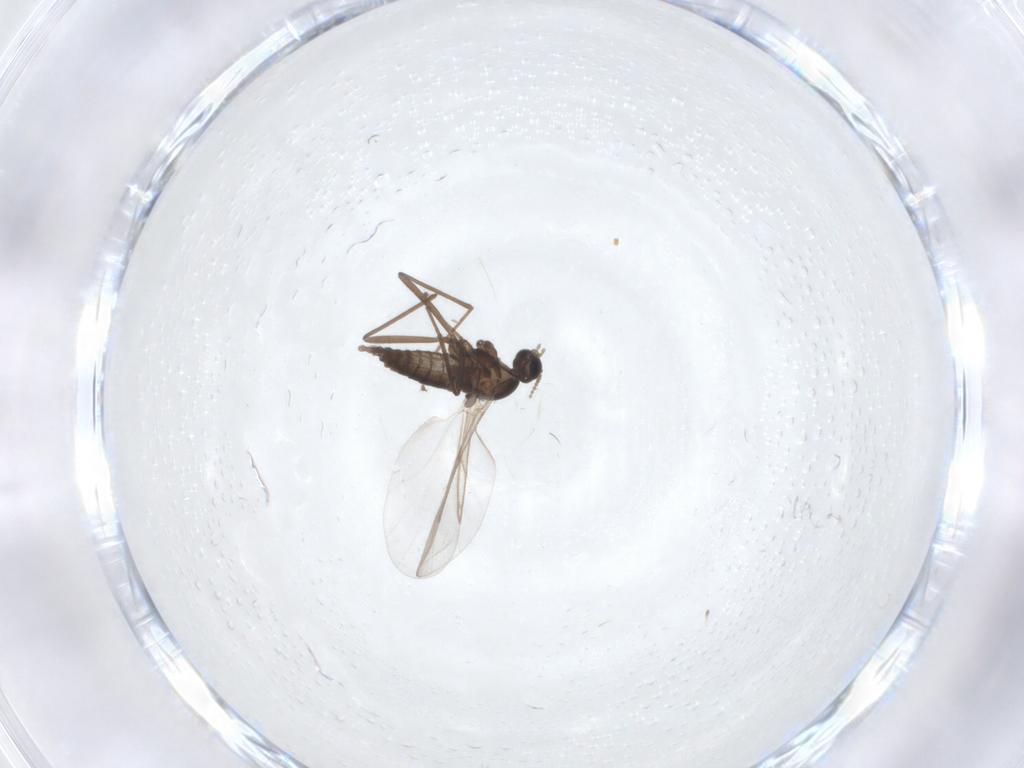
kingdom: Animalia
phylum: Arthropoda
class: Insecta
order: Diptera
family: Cecidomyiidae
